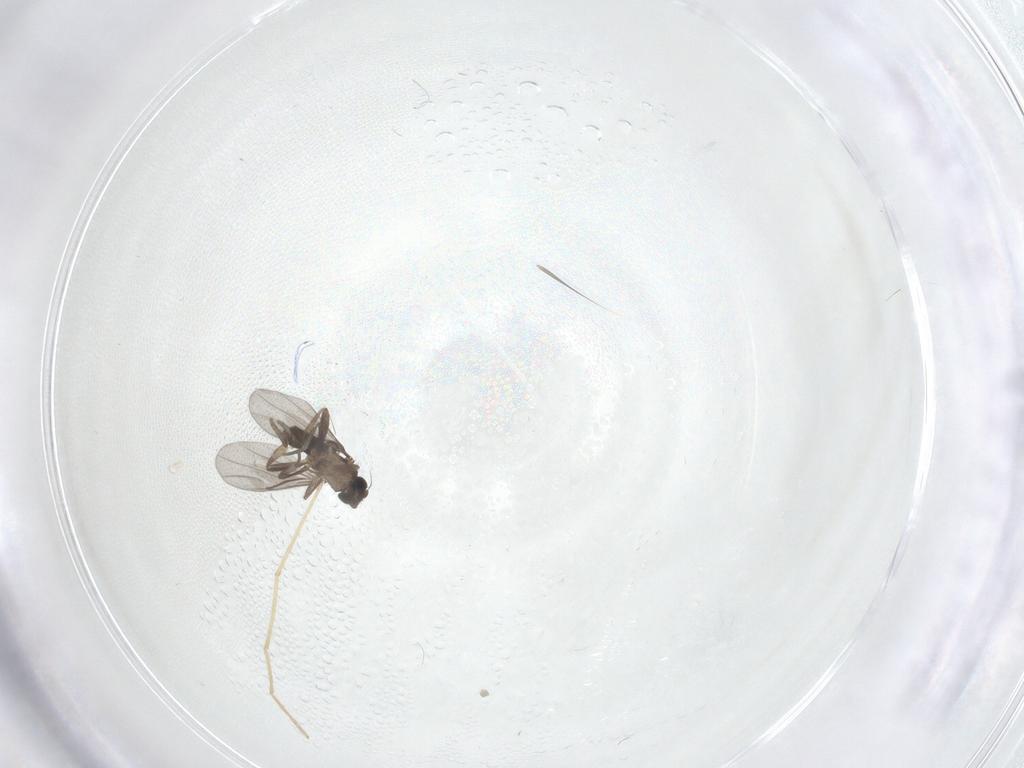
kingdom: Animalia
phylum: Arthropoda
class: Insecta
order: Diptera
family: Chironomidae
